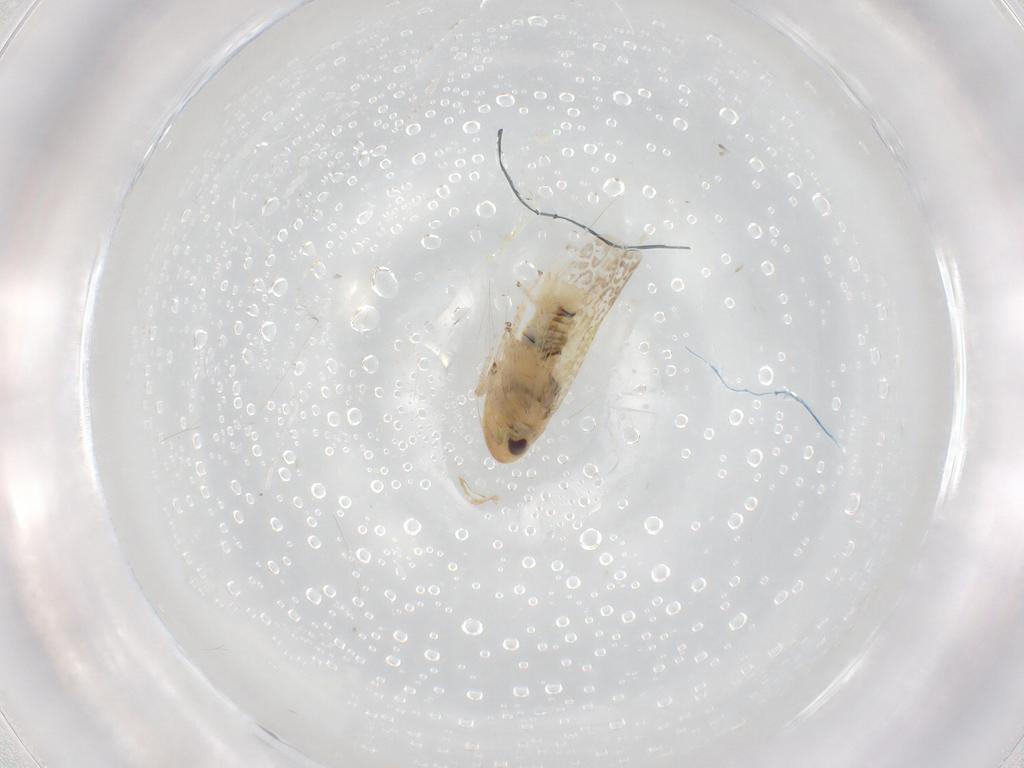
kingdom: Animalia
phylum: Arthropoda
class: Insecta
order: Hemiptera
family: Cicadellidae
